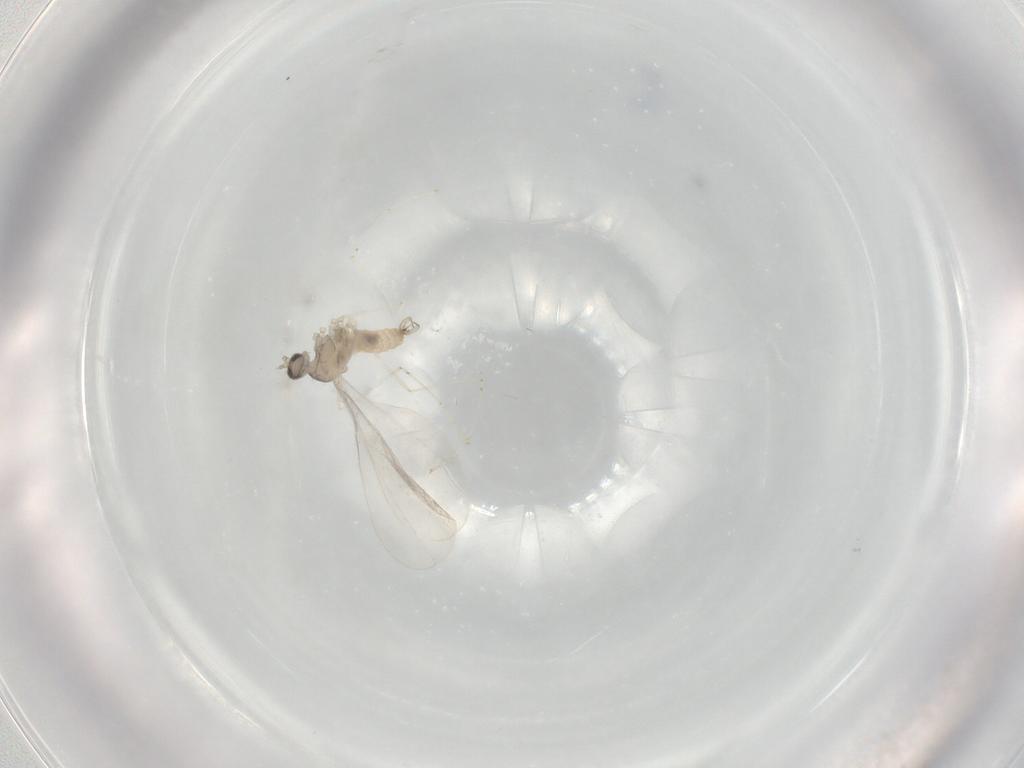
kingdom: Animalia
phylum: Arthropoda
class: Insecta
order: Diptera
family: Cecidomyiidae
